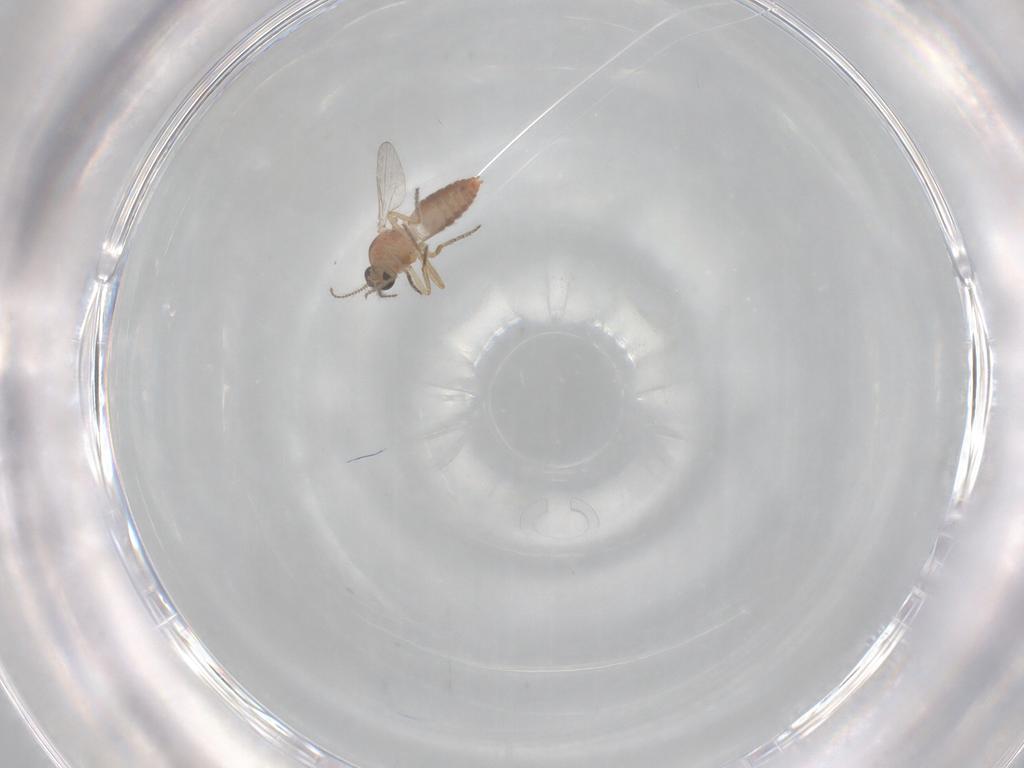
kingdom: Animalia
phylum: Arthropoda
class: Insecta
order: Diptera
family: Ceratopogonidae
